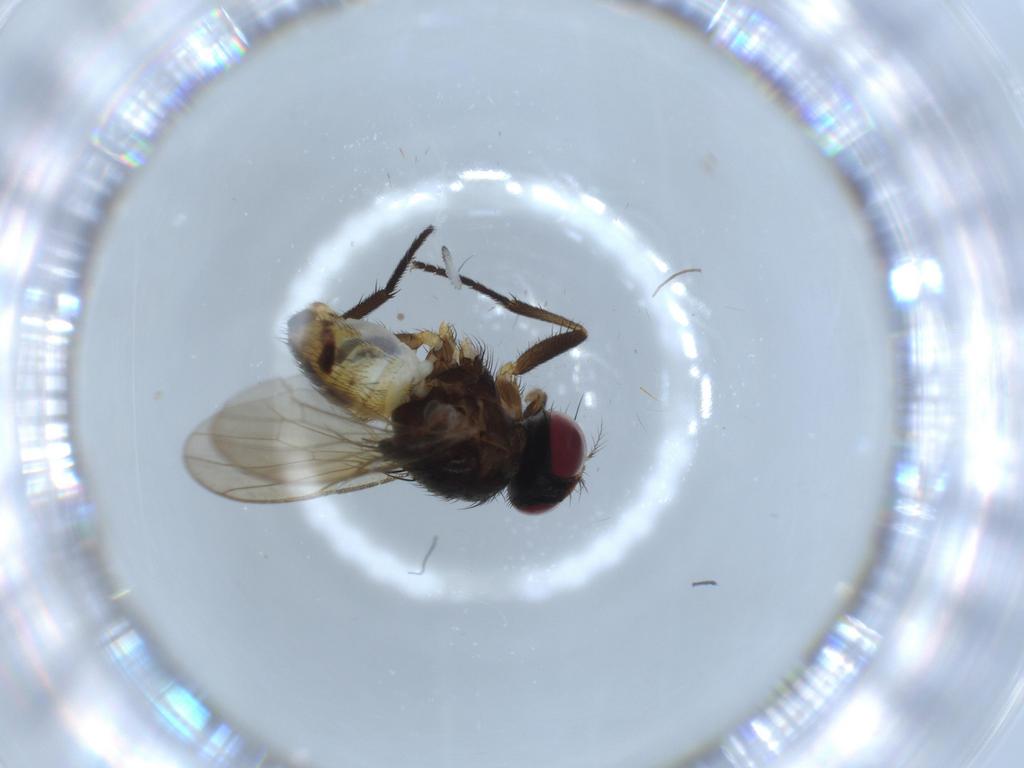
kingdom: Animalia
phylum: Arthropoda
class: Insecta
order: Diptera
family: Anthomyiidae
